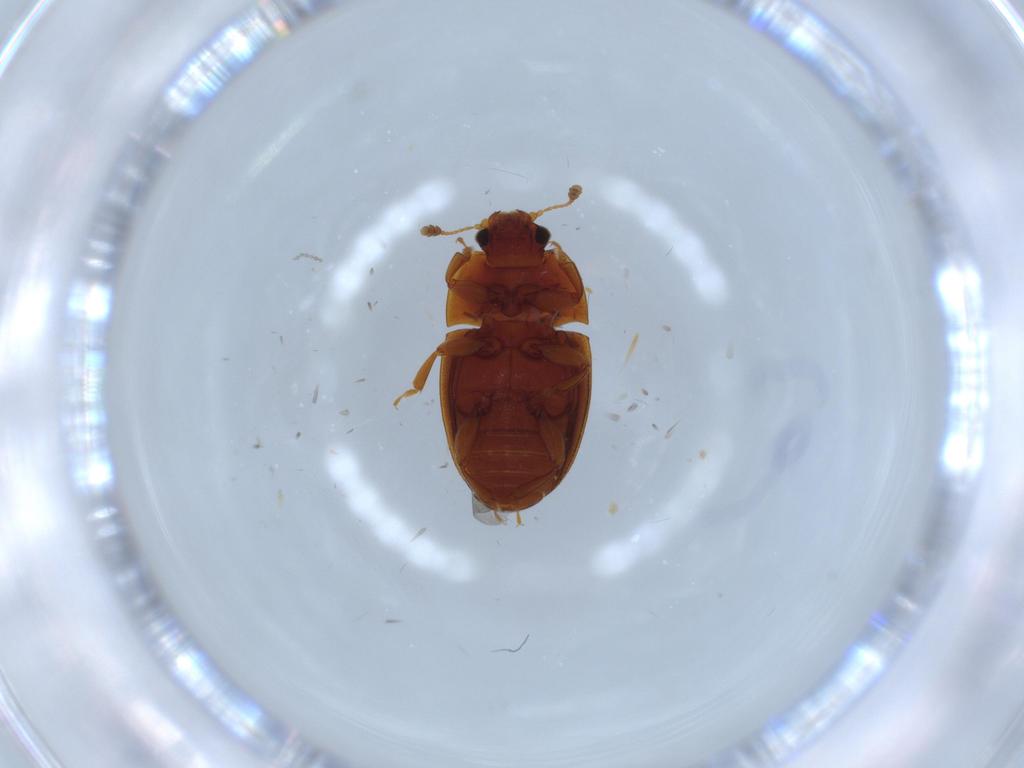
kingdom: Animalia
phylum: Arthropoda
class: Insecta
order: Coleoptera
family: Ptilodactylidae
